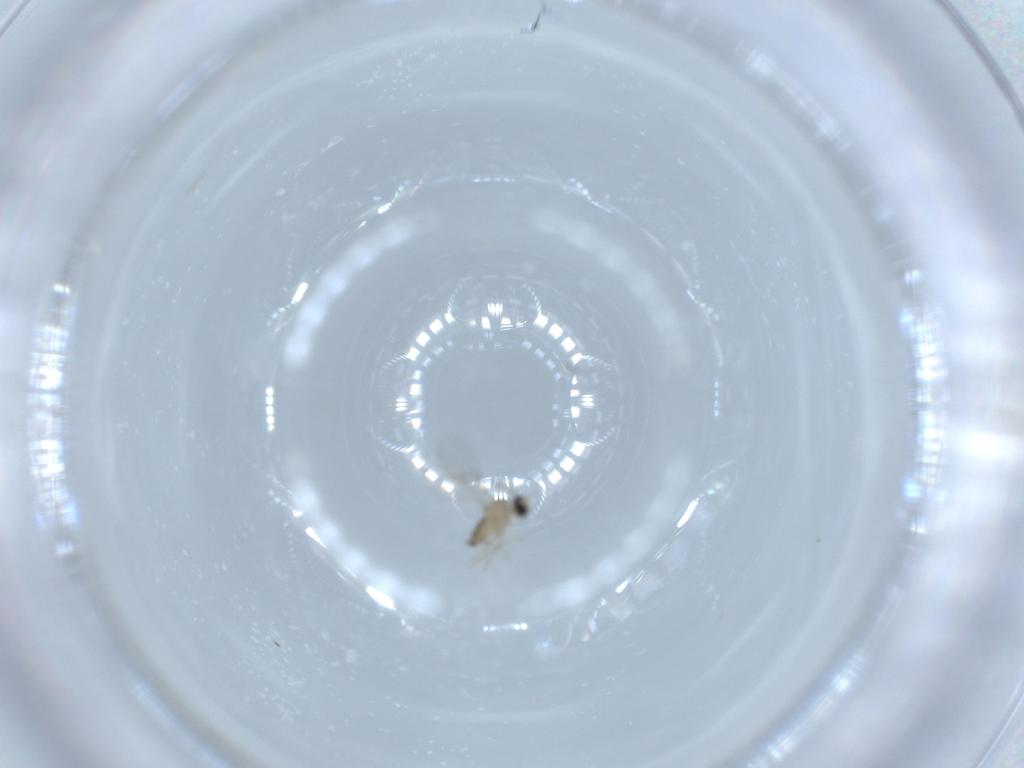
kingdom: Animalia
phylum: Arthropoda
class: Insecta
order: Diptera
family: Cecidomyiidae
